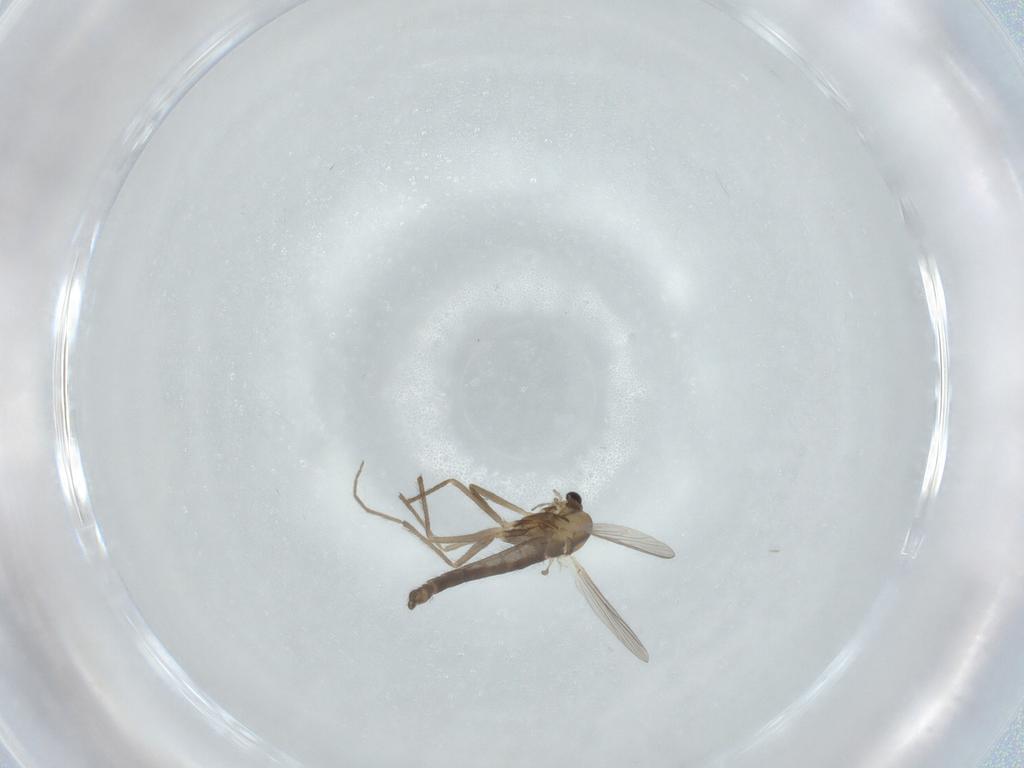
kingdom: Animalia
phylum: Arthropoda
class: Insecta
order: Diptera
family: Chironomidae
